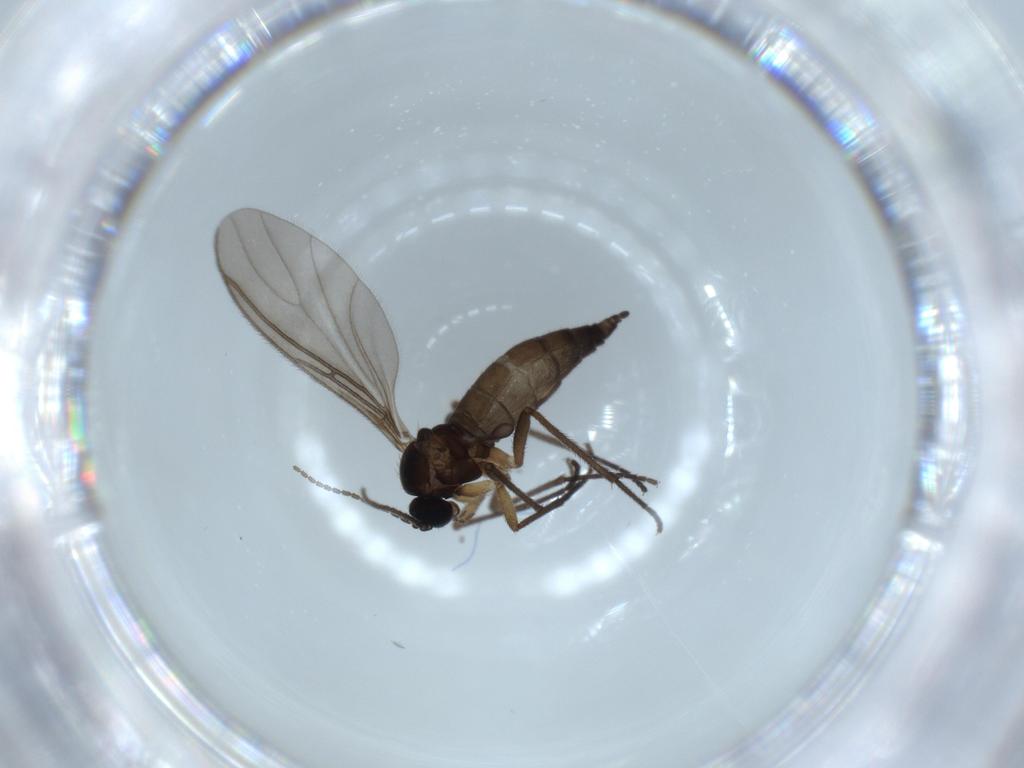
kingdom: Animalia
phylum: Arthropoda
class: Insecta
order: Diptera
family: Sciaridae
